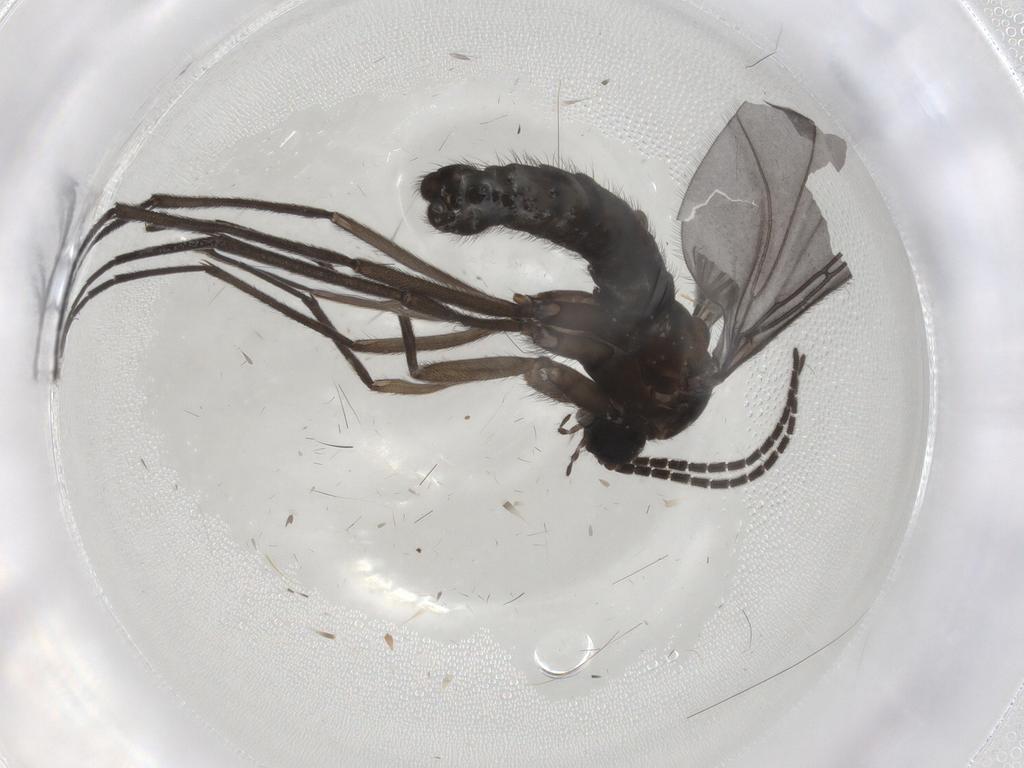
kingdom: Animalia
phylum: Arthropoda
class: Insecta
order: Diptera
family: Sciaridae
